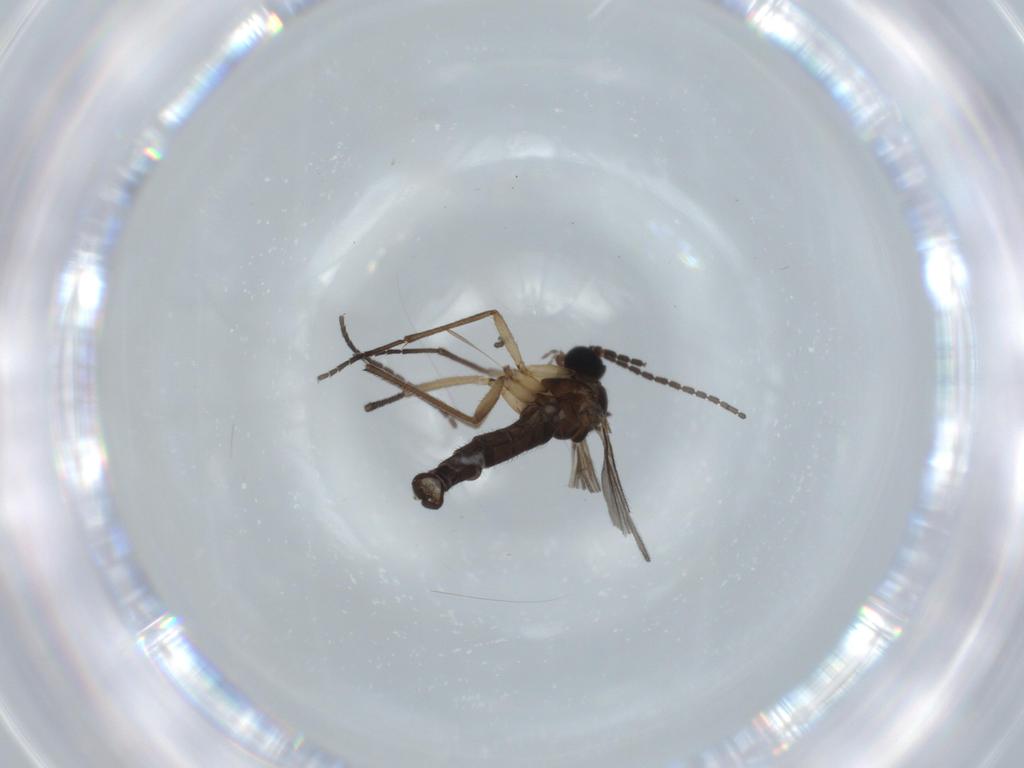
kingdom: Animalia
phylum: Arthropoda
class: Insecta
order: Diptera
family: Sciaridae
